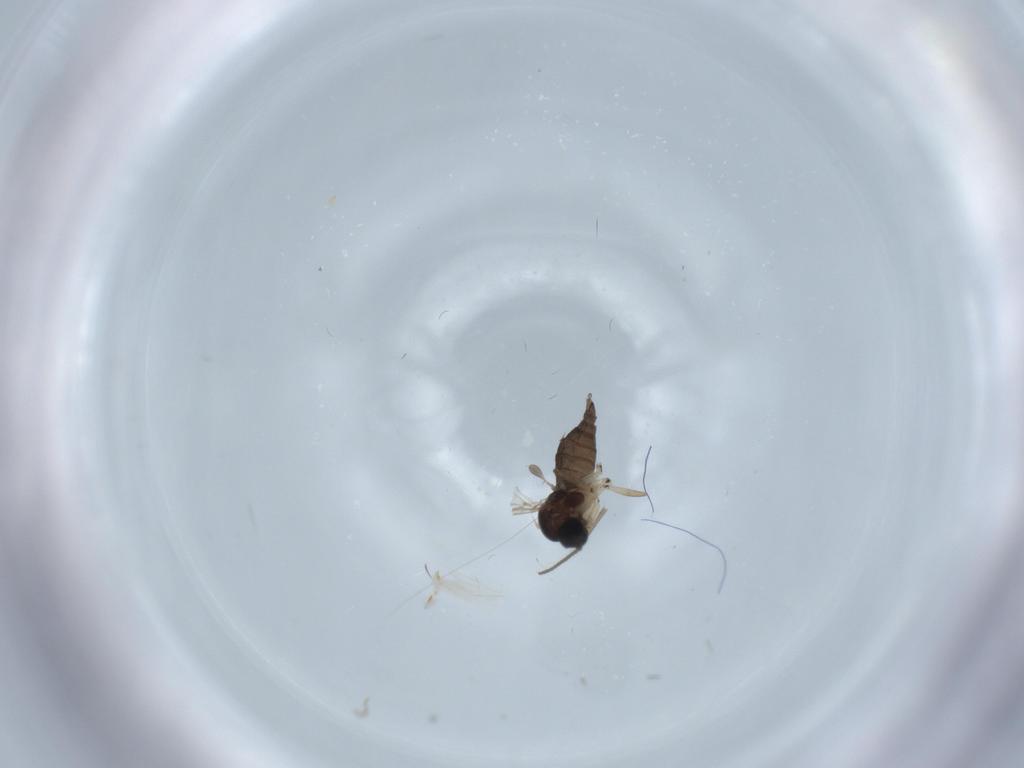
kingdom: Animalia
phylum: Arthropoda
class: Insecta
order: Diptera
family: Sciaridae
